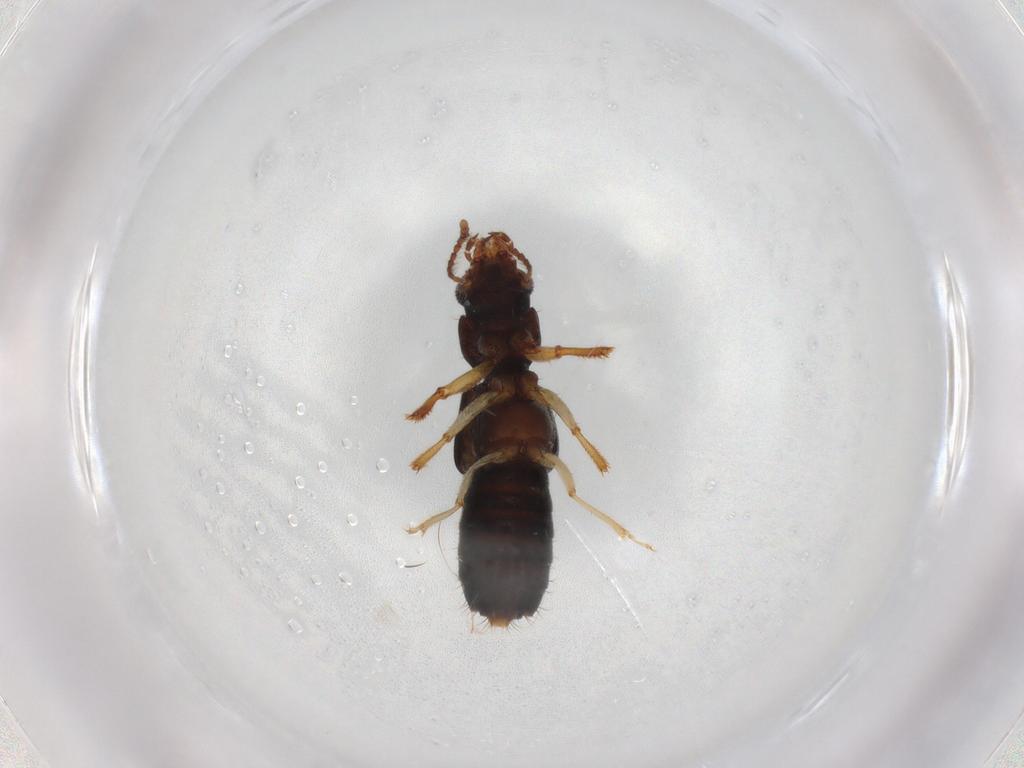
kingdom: Animalia
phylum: Arthropoda
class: Insecta
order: Coleoptera
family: Staphylinidae
